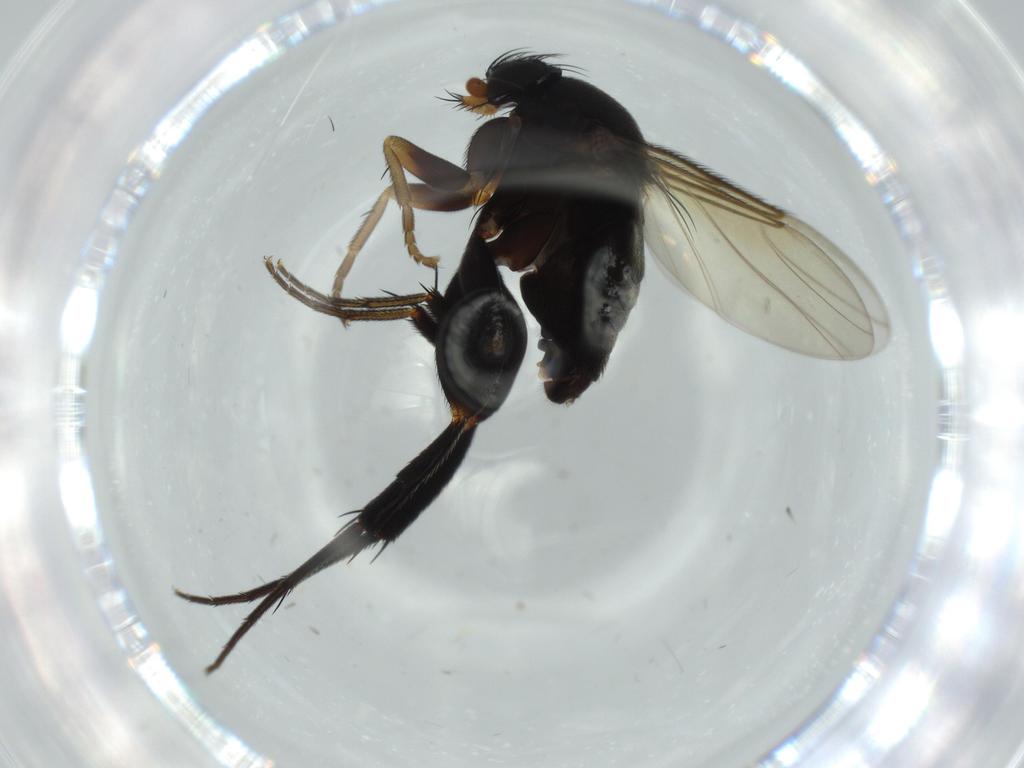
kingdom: Animalia
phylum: Arthropoda
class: Insecta
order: Diptera
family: Phoridae
